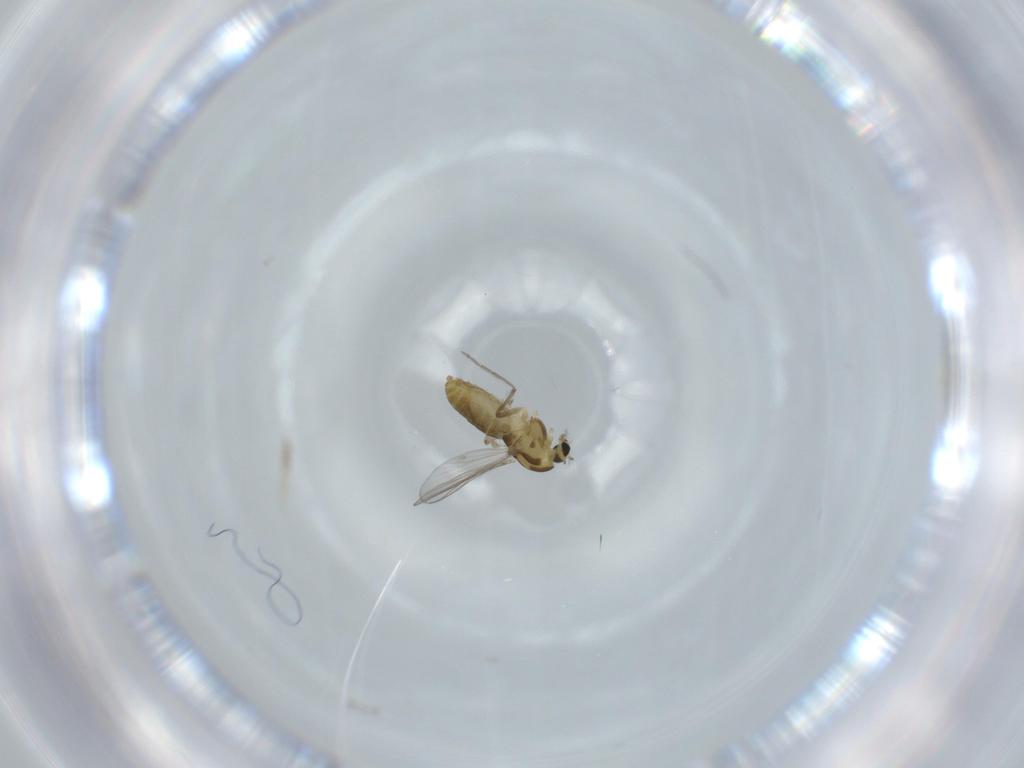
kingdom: Animalia
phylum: Arthropoda
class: Insecta
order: Diptera
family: Chironomidae
